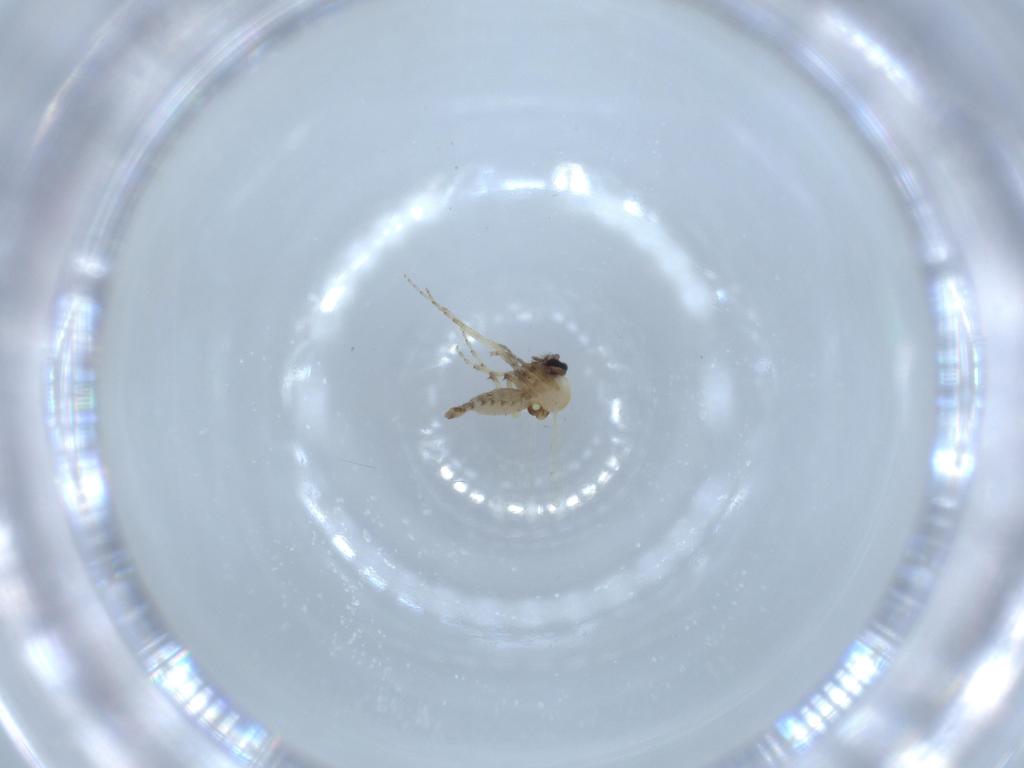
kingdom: Animalia
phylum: Arthropoda
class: Insecta
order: Diptera
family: Ceratopogonidae
